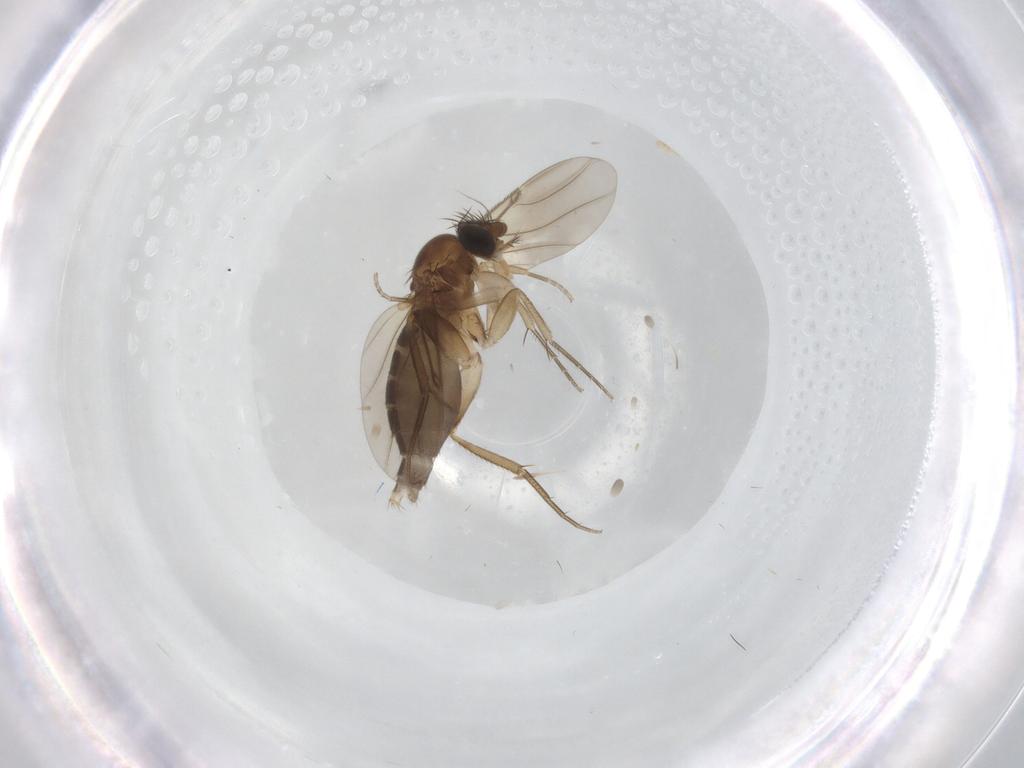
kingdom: Animalia
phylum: Arthropoda
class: Insecta
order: Diptera
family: Phoridae
